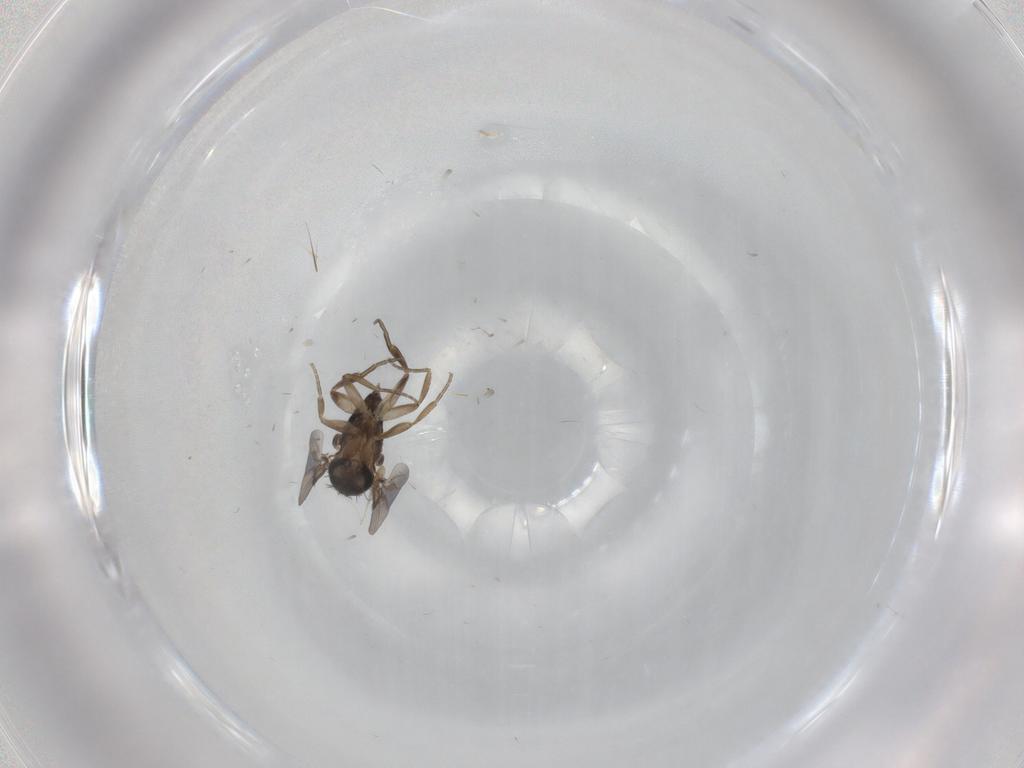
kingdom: Animalia
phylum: Arthropoda
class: Insecta
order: Diptera
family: Phoridae
